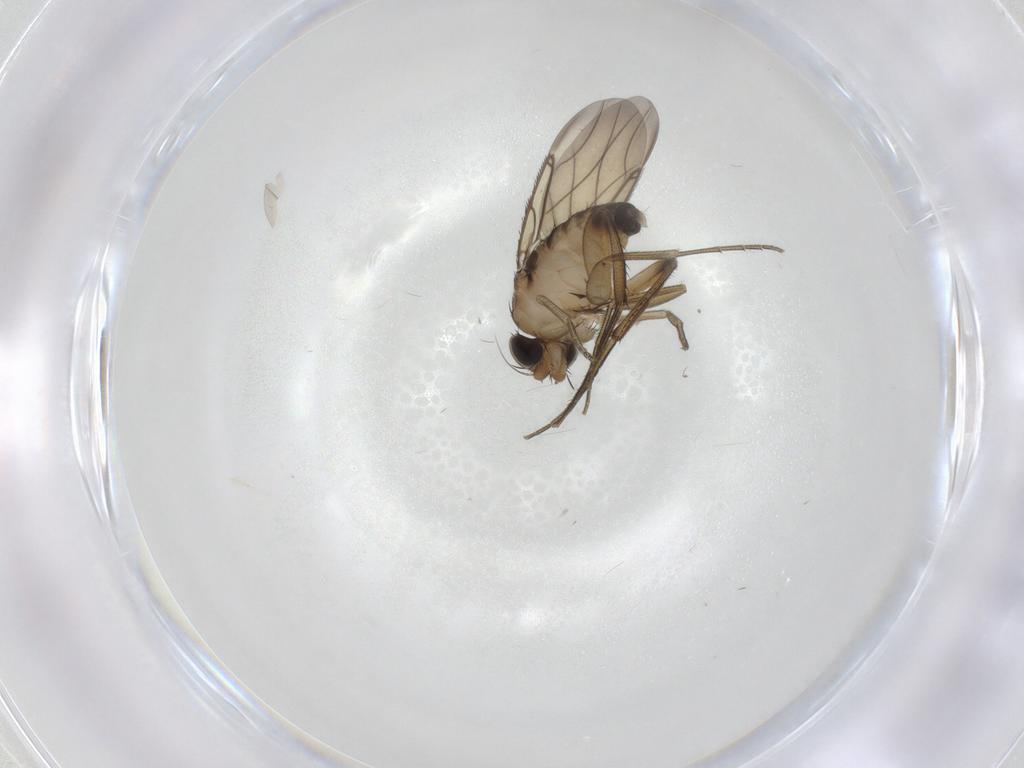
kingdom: Animalia
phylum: Arthropoda
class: Insecta
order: Diptera
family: Phoridae
